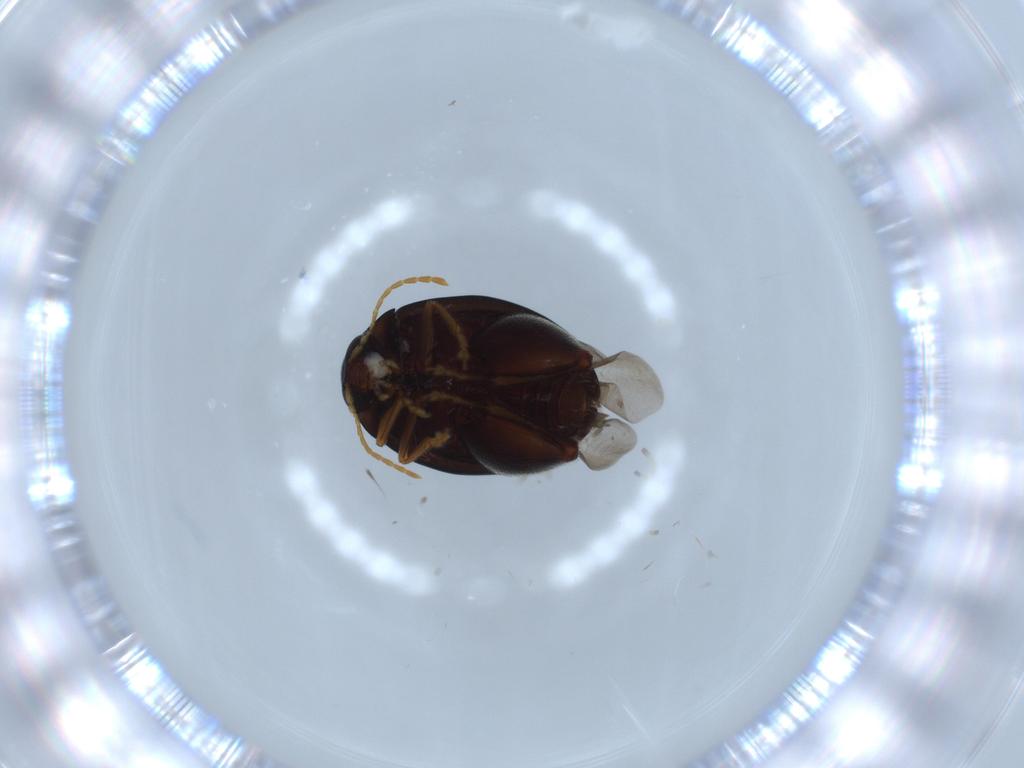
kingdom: Animalia
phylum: Arthropoda
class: Insecta
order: Coleoptera
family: Chrysomelidae
